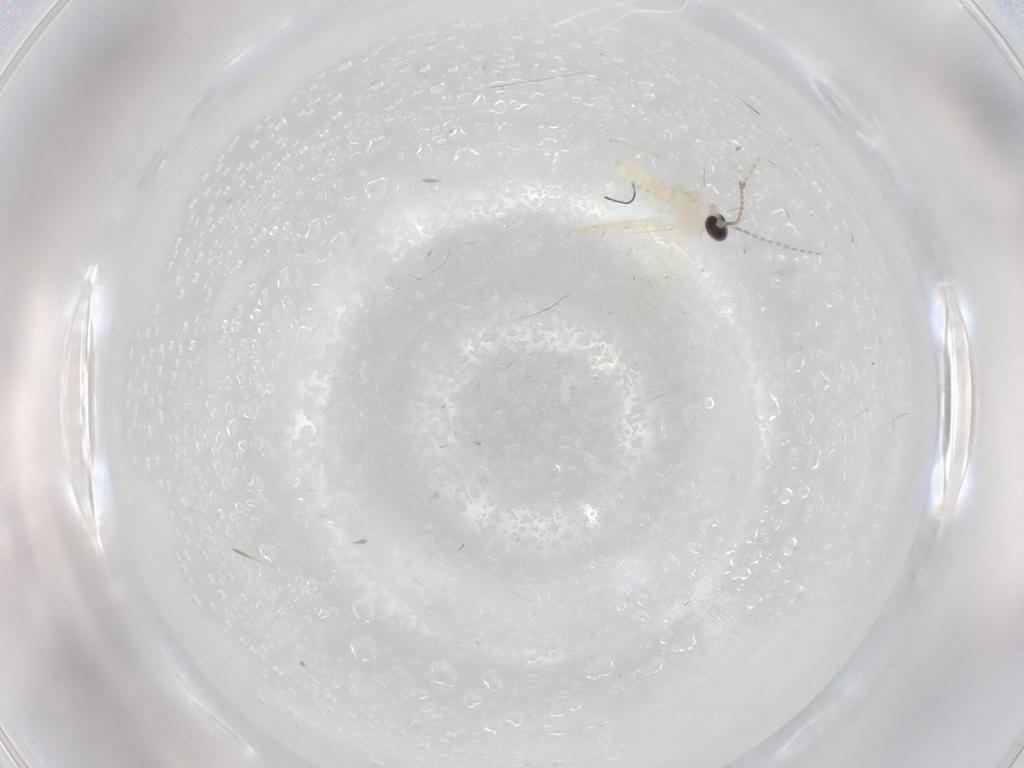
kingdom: Animalia
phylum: Arthropoda
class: Insecta
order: Diptera
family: Cecidomyiidae
